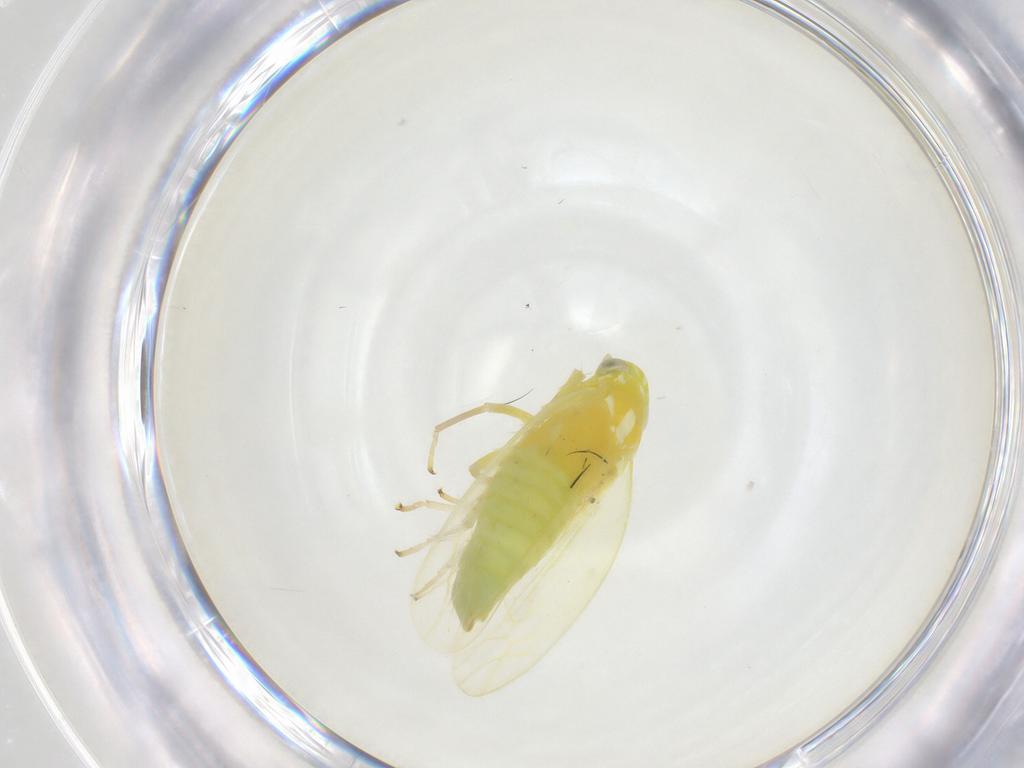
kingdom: Animalia
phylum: Arthropoda
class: Insecta
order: Hemiptera
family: Cicadellidae
